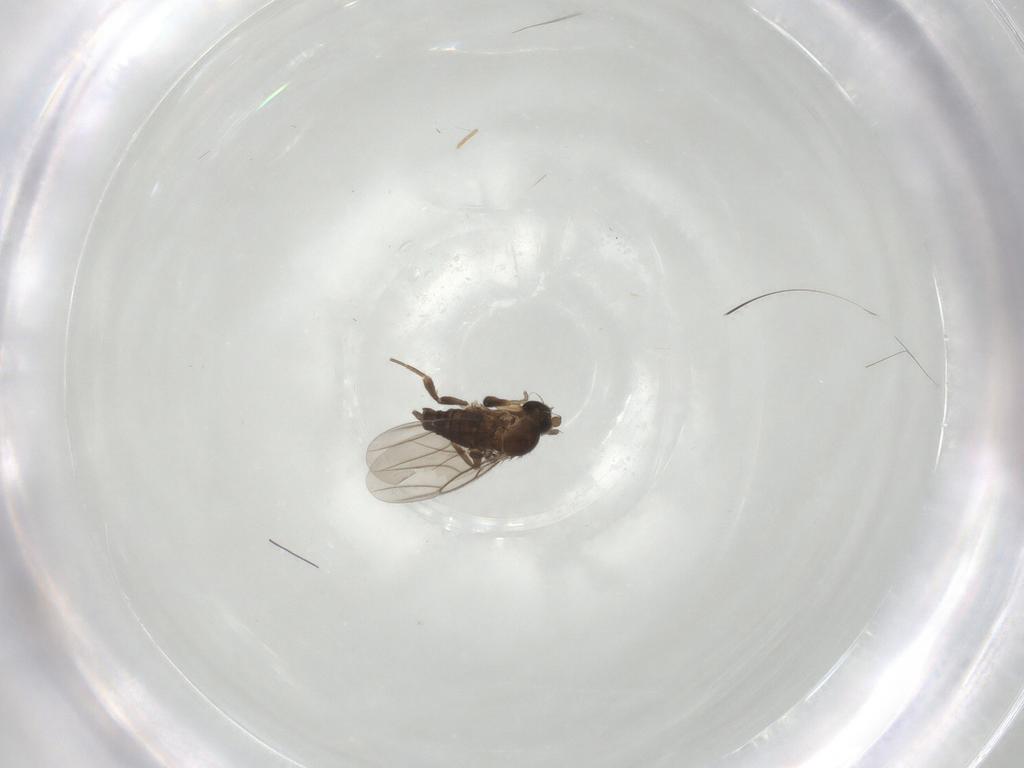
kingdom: Animalia
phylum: Arthropoda
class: Insecta
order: Diptera
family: Phoridae
